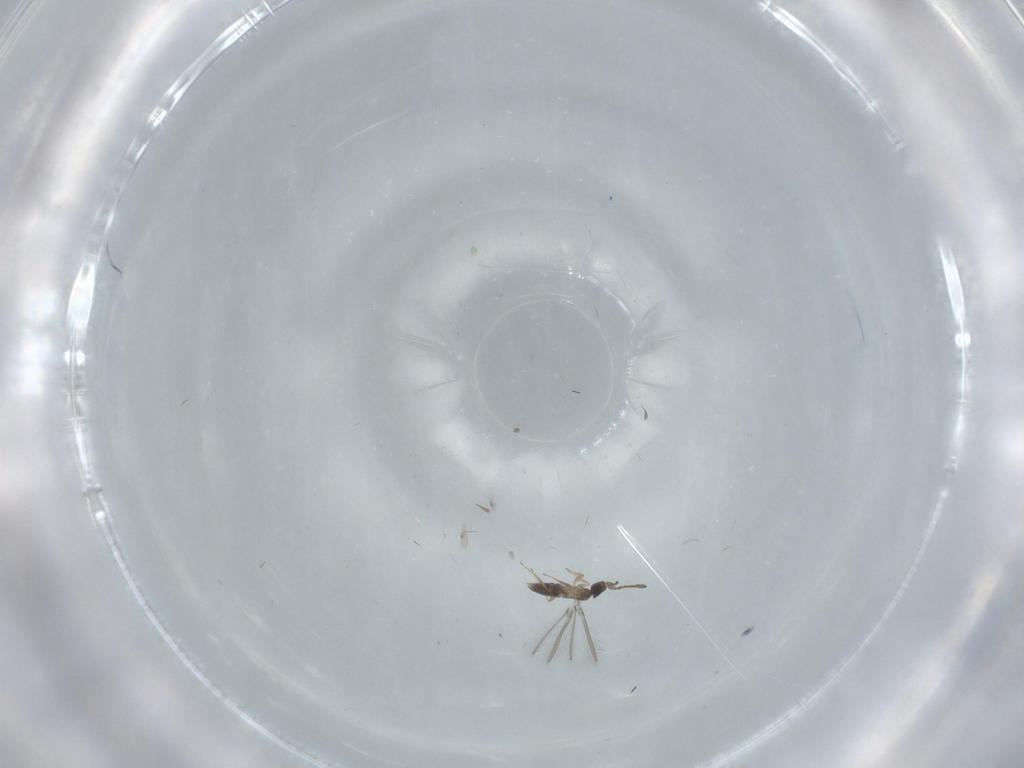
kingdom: Animalia
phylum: Arthropoda
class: Insecta
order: Hymenoptera
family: Mymaridae
